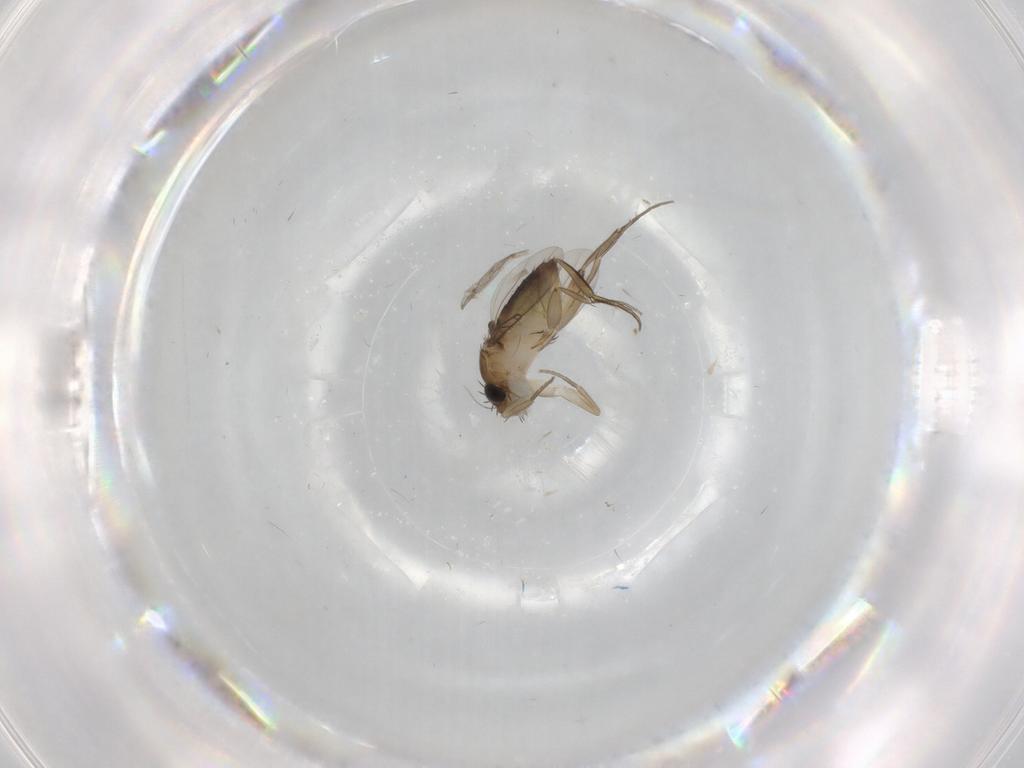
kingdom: Animalia
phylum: Arthropoda
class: Insecta
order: Diptera
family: Phoridae
